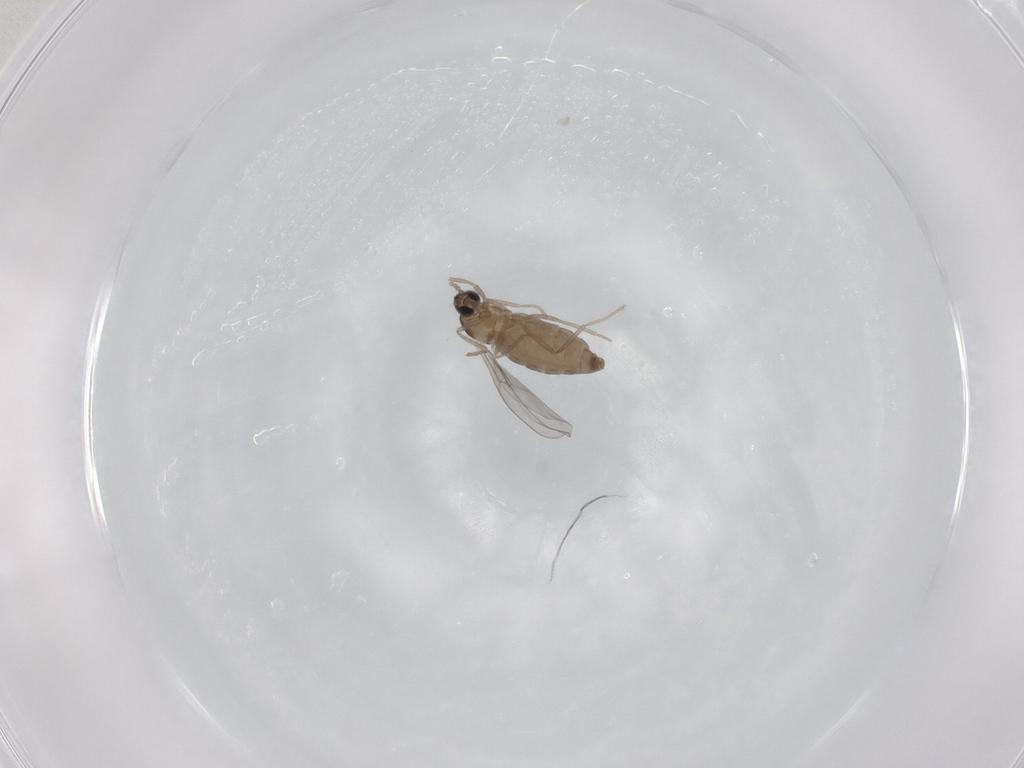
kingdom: Animalia
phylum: Arthropoda
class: Insecta
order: Diptera
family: Cecidomyiidae
